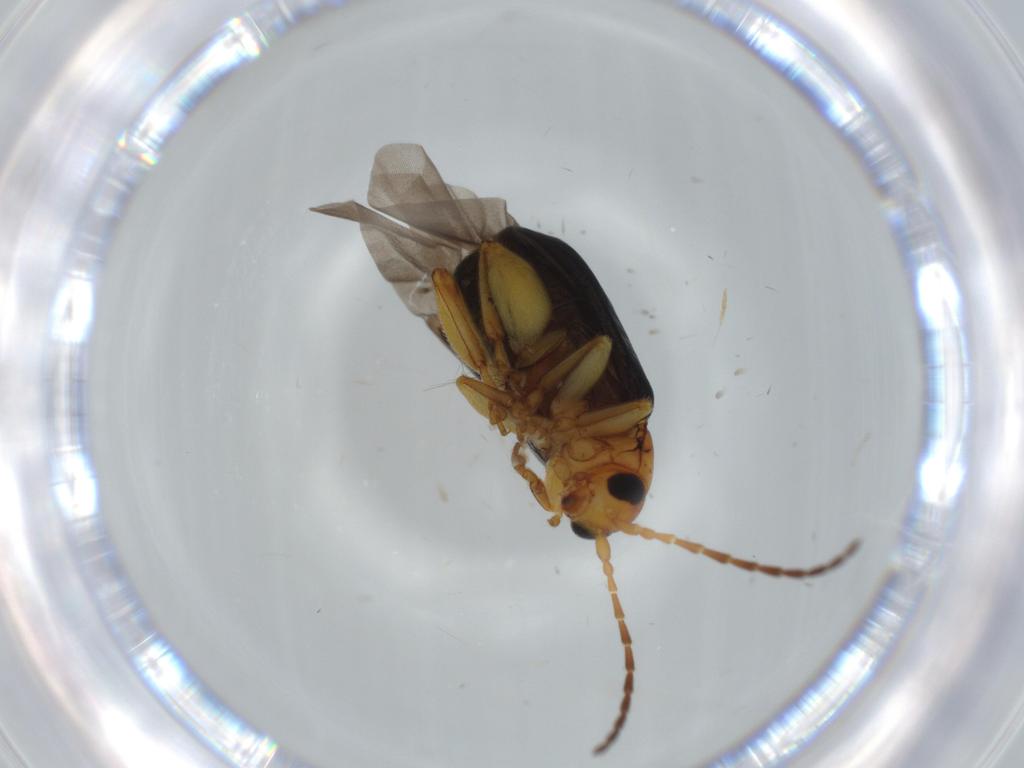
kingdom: Animalia
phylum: Arthropoda
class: Insecta
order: Coleoptera
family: Chrysomelidae
